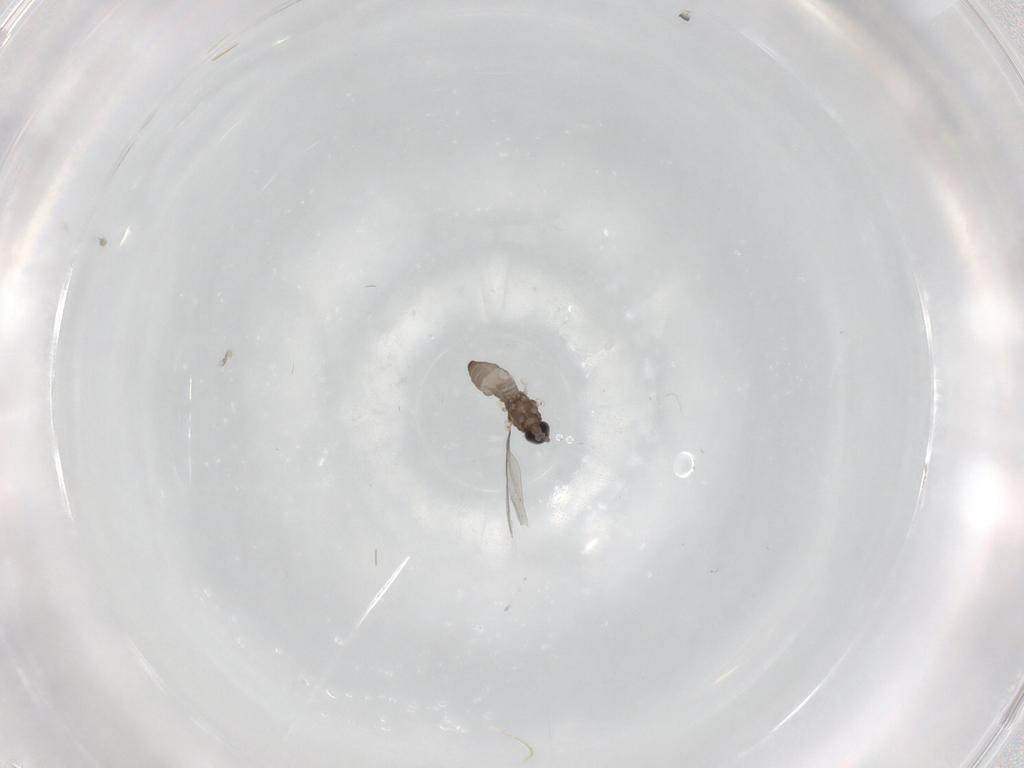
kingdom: Animalia
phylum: Arthropoda
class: Insecta
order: Diptera
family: Cecidomyiidae
